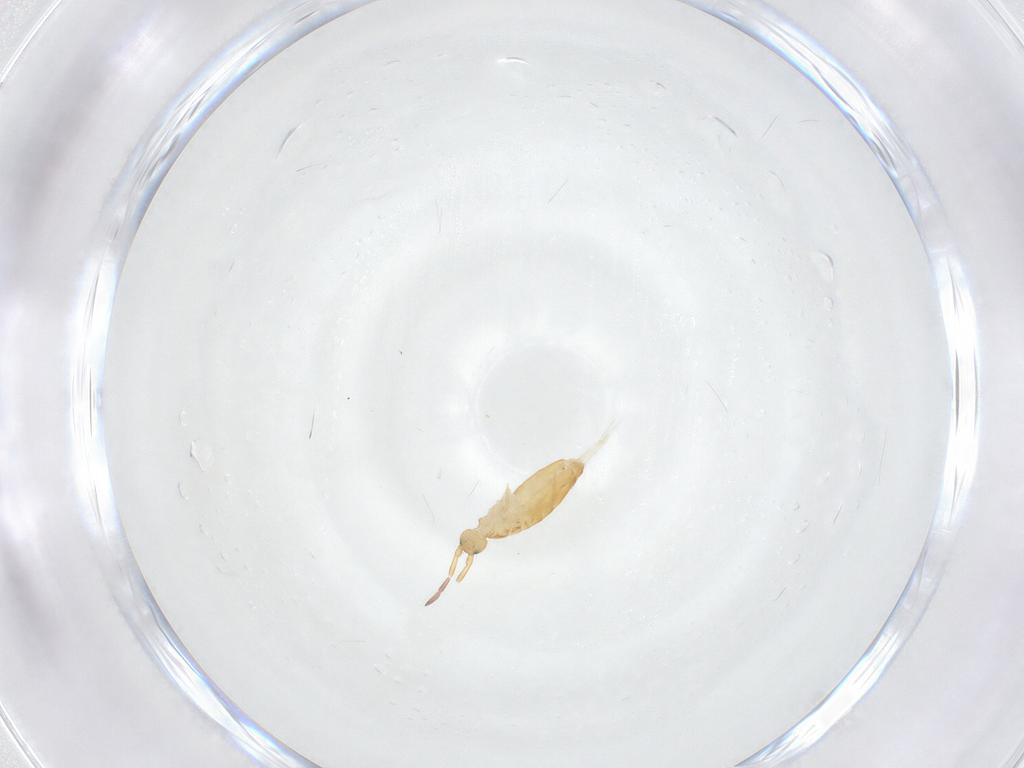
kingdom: Animalia
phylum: Arthropoda
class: Collembola
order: Entomobryomorpha
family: Entomobryidae
